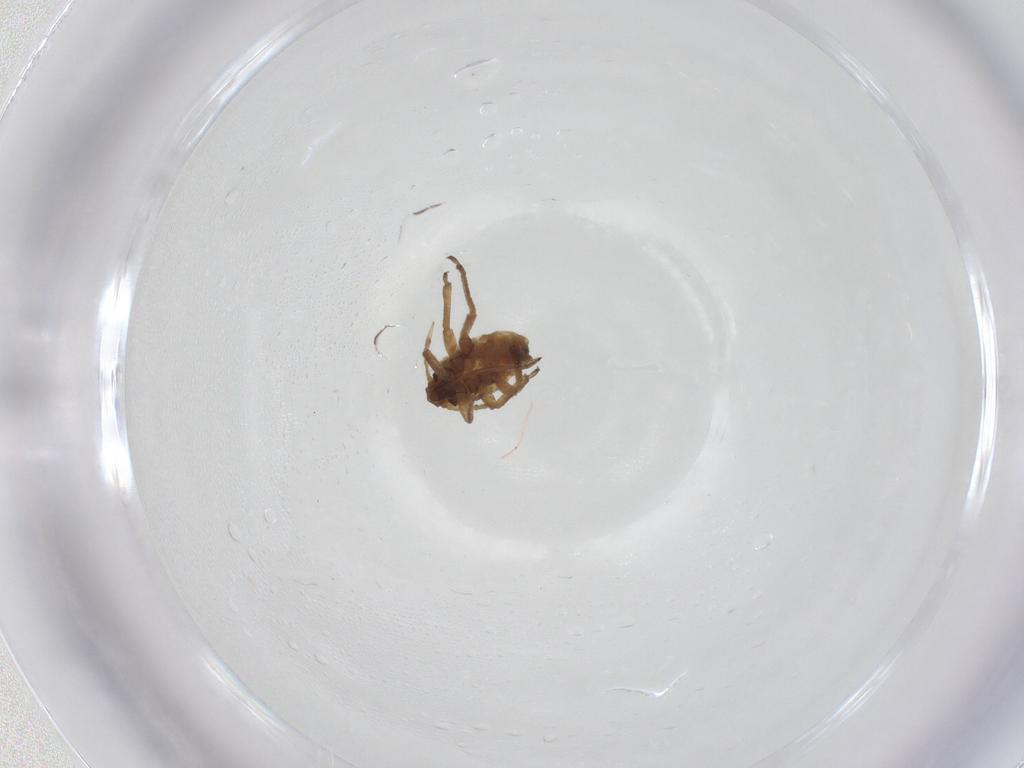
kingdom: Animalia
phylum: Arthropoda
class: Insecta
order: Hemiptera
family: Aphididae
